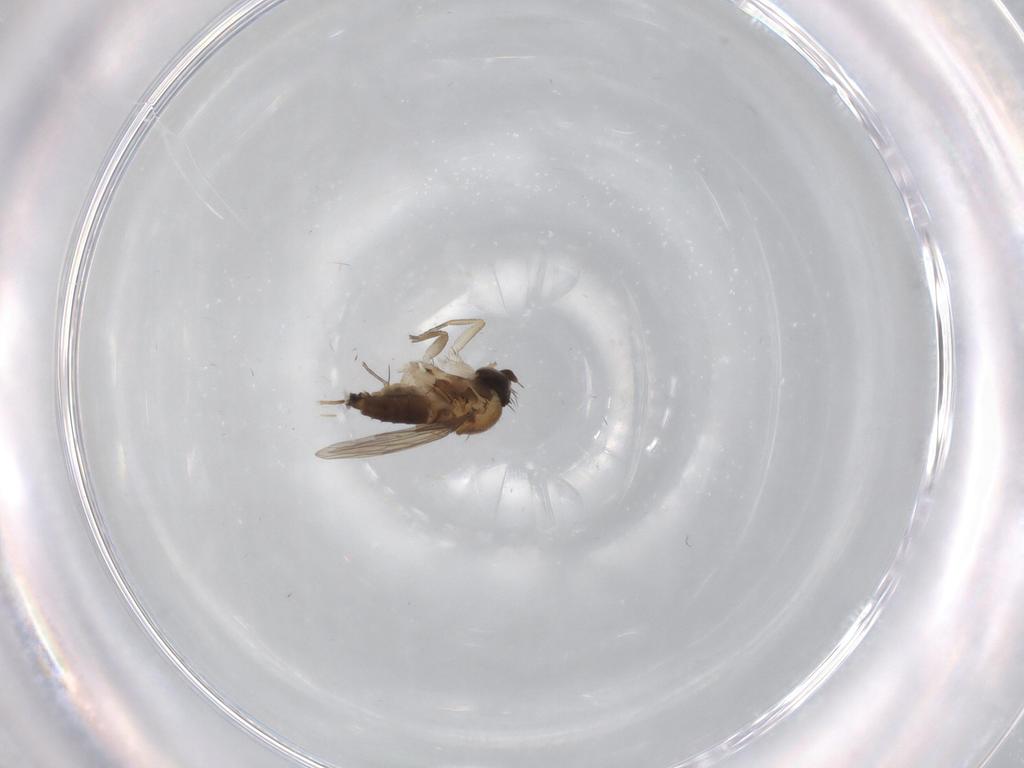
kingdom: Animalia
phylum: Arthropoda
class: Insecta
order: Diptera
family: Phoridae
